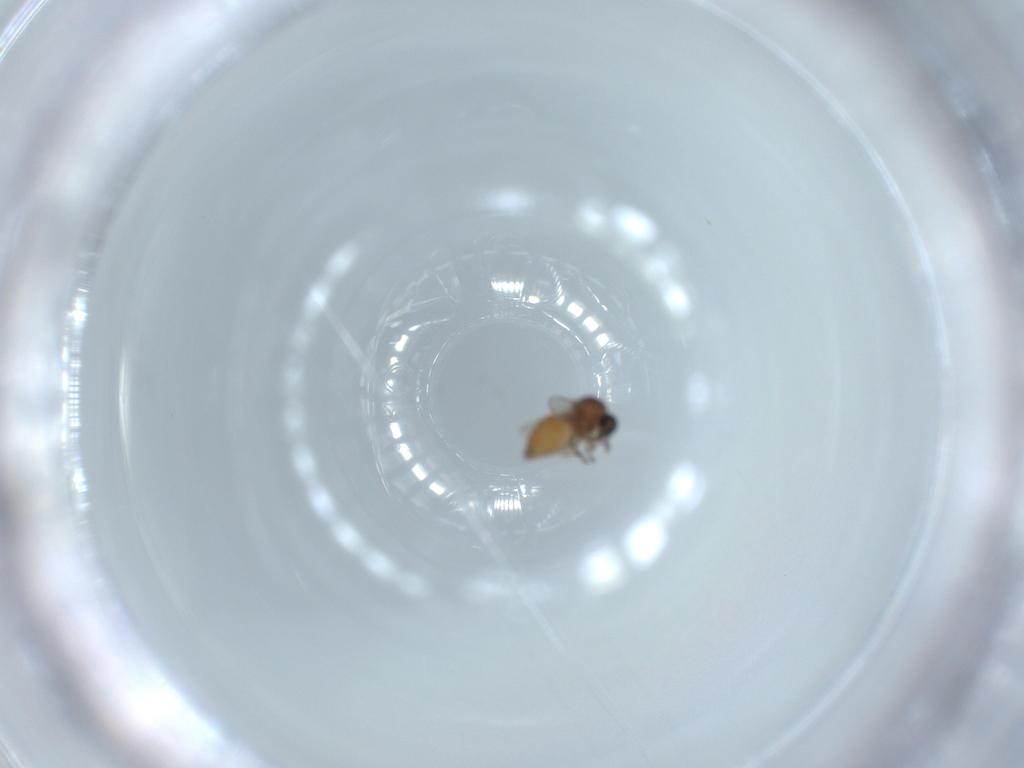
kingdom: Animalia
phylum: Arthropoda
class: Insecta
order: Diptera
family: Ceratopogonidae
